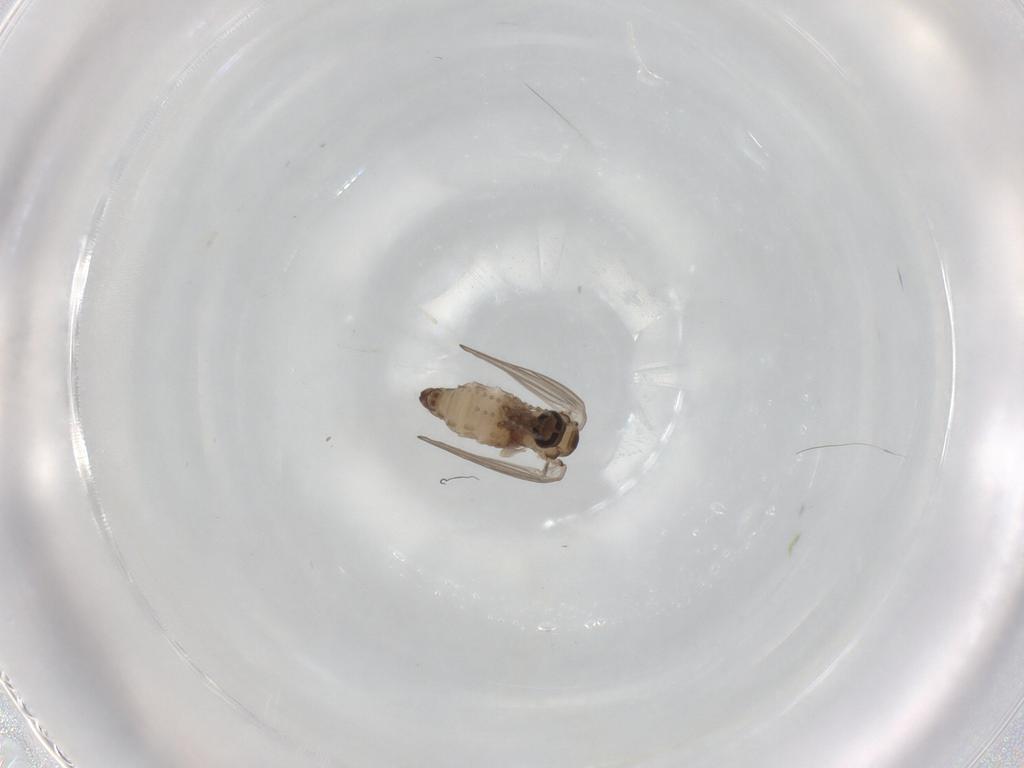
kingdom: Animalia
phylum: Arthropoda
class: Insecta
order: Diptera
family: Psychodidae
